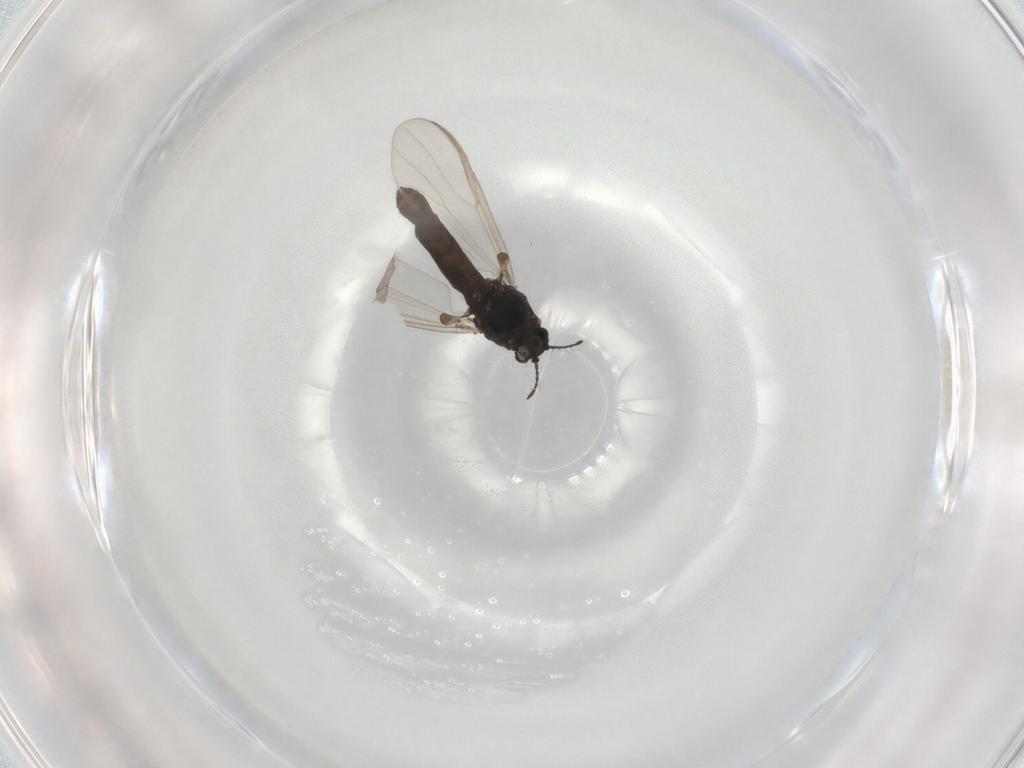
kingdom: Animalia
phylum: Arthropoda
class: Insecta
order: Diptera
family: Chironomidae
